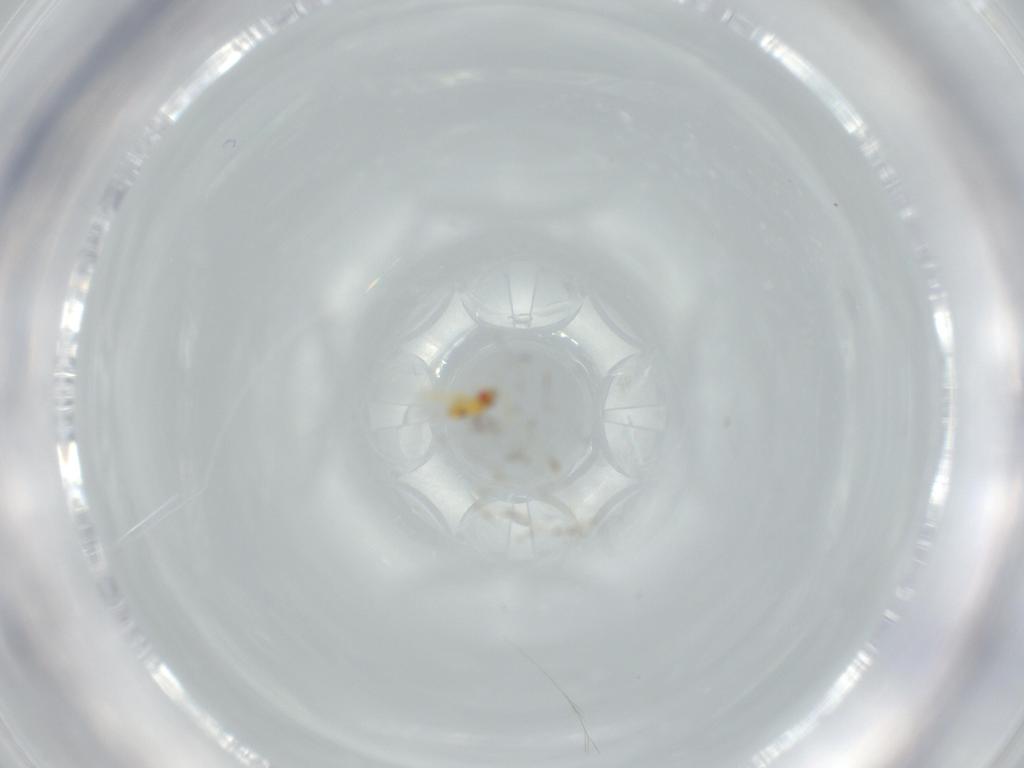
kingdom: Animalia
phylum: Arthropoda
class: Insecta
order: Hymenoptera
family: Trichogrammatidae
